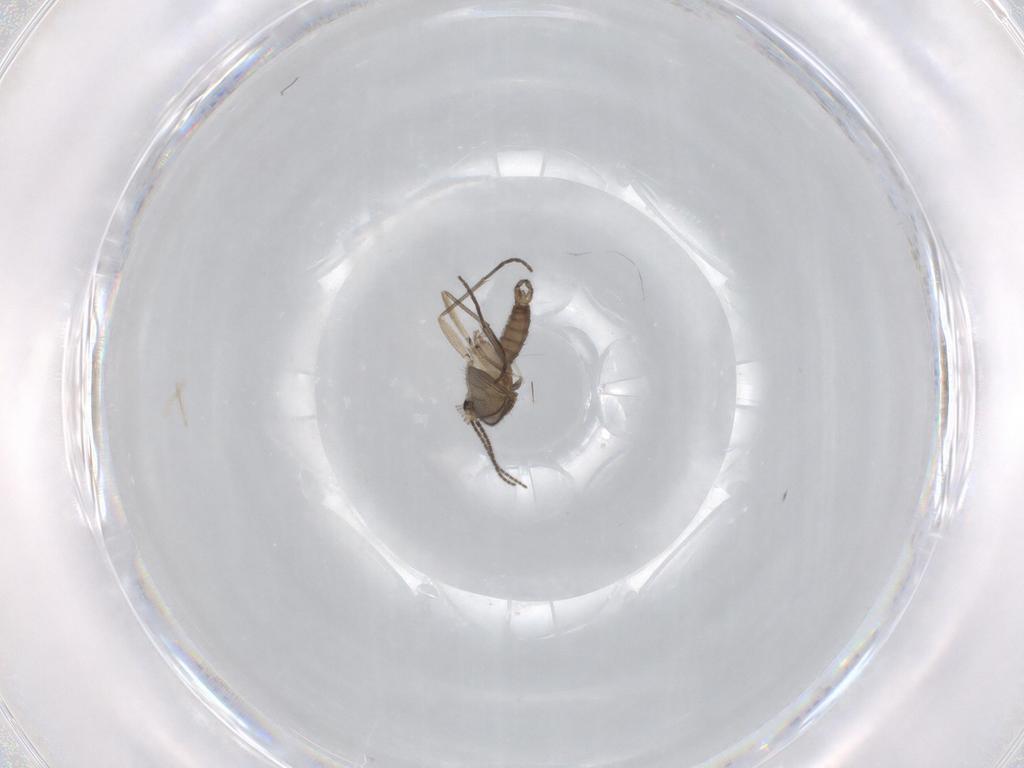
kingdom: Animalia
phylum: Arthropoda
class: Insecta
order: Diptera
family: Sciaridae
